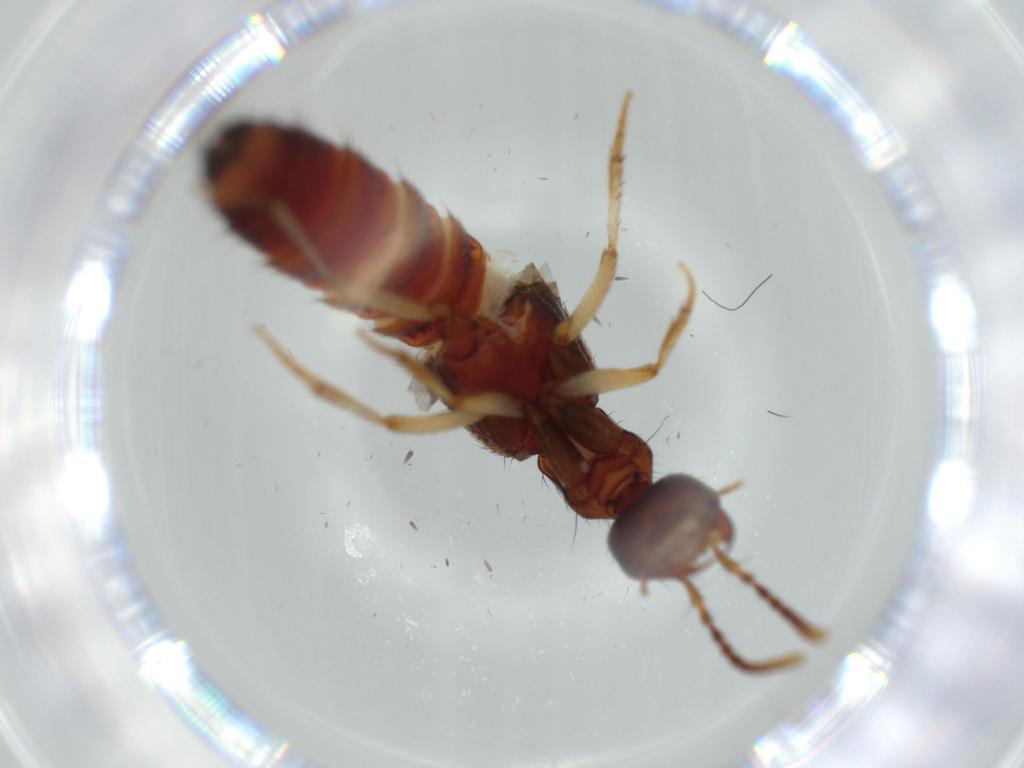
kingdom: Animalia
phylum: Arthropoda
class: Insecta
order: Coleoptera
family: Staphylinidae
